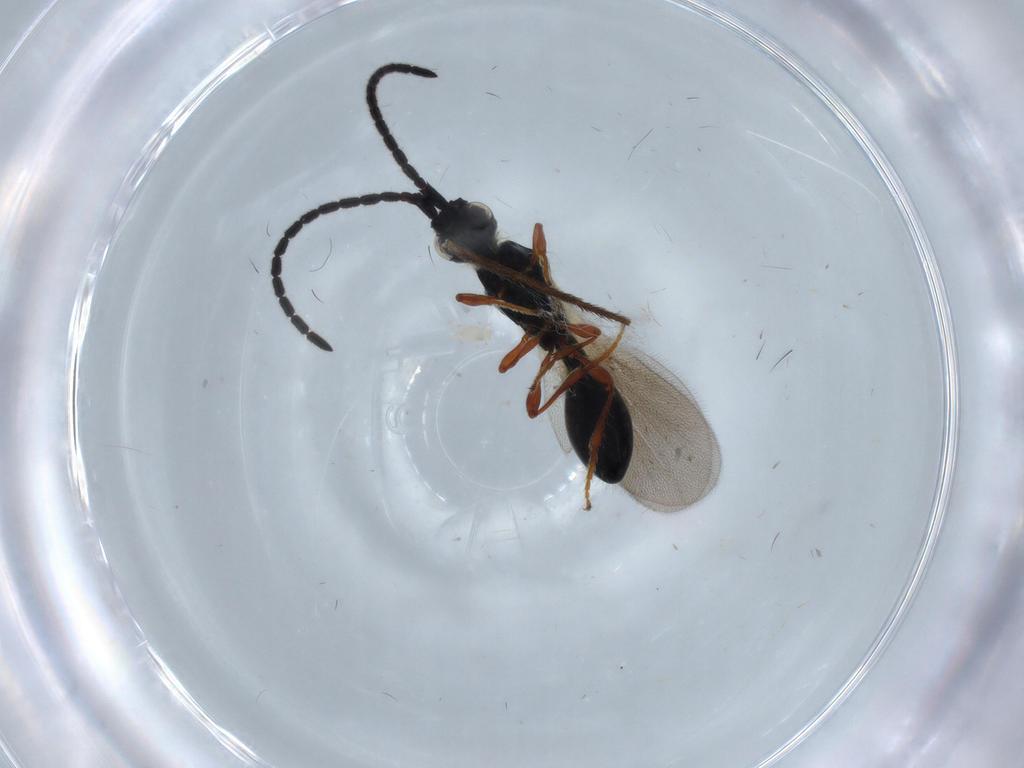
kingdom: Animalia
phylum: Arthropoda
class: Insecta
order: Hymenoptera
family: Diapriidae
